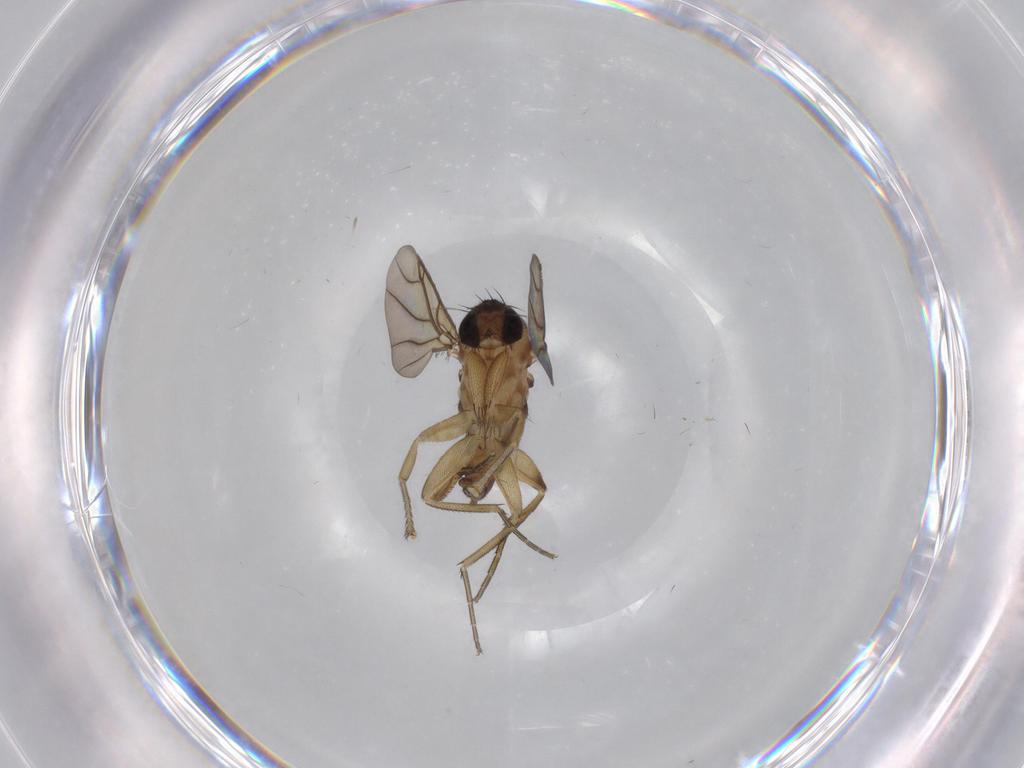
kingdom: Animalia
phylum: Arthropoda
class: Insecta
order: Diptera
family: Phoridae
